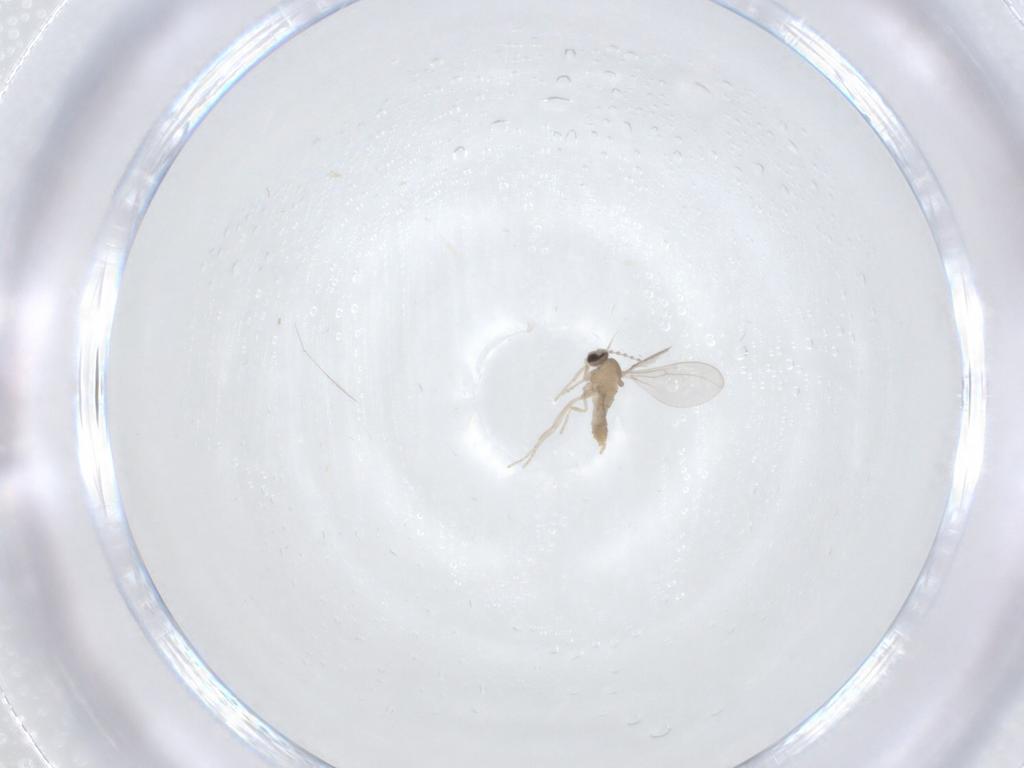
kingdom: Animalia
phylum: Arthropoda
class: Insecta
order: Diptera
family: Cecidomyiidae
